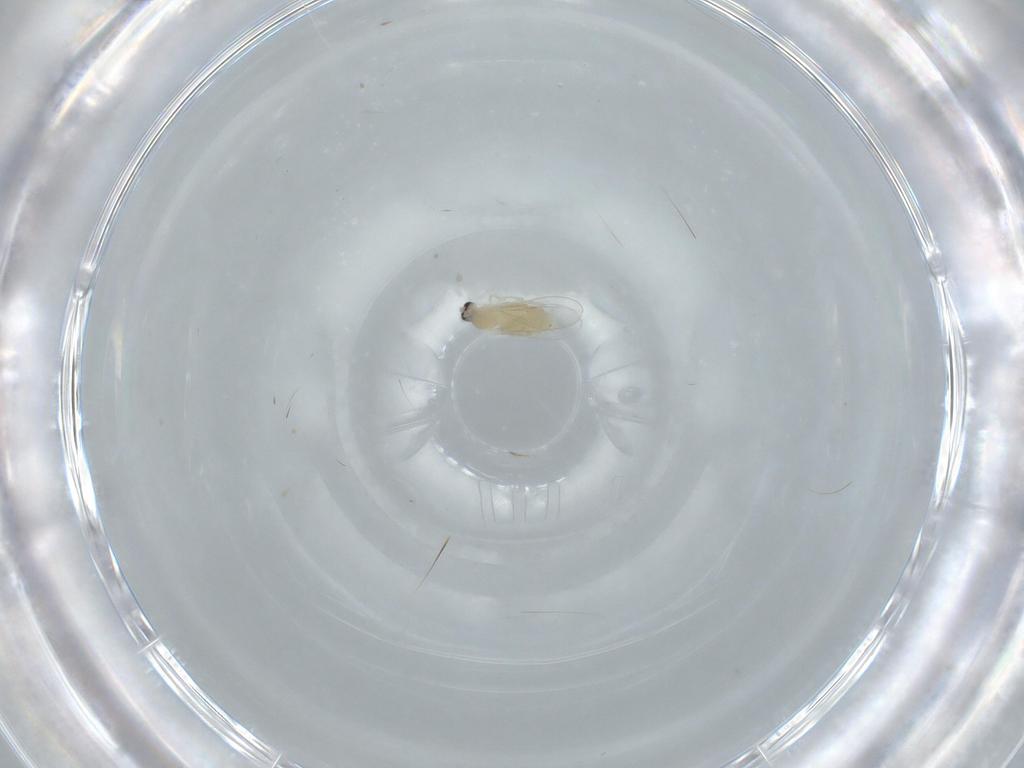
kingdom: Animalia
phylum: Arthropoda
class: Insecta
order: Diptera
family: Cecidomyiidae
